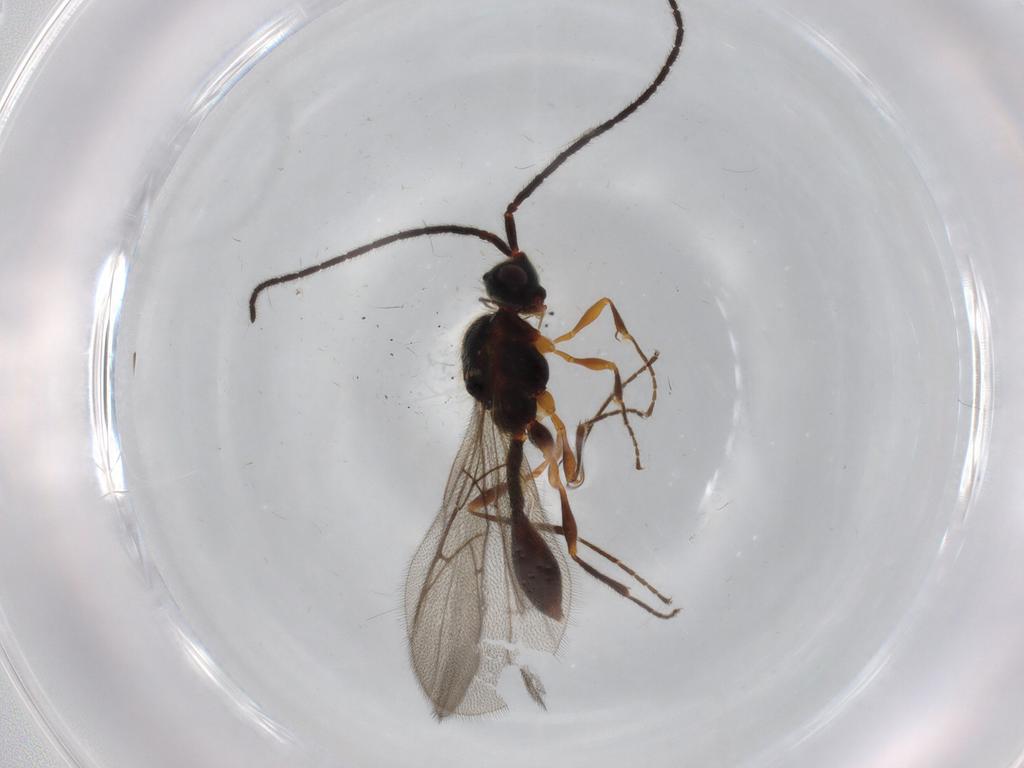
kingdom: Animalia
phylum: Arthropoda
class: Insecta
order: Hymenoptera
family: Diapriidae
